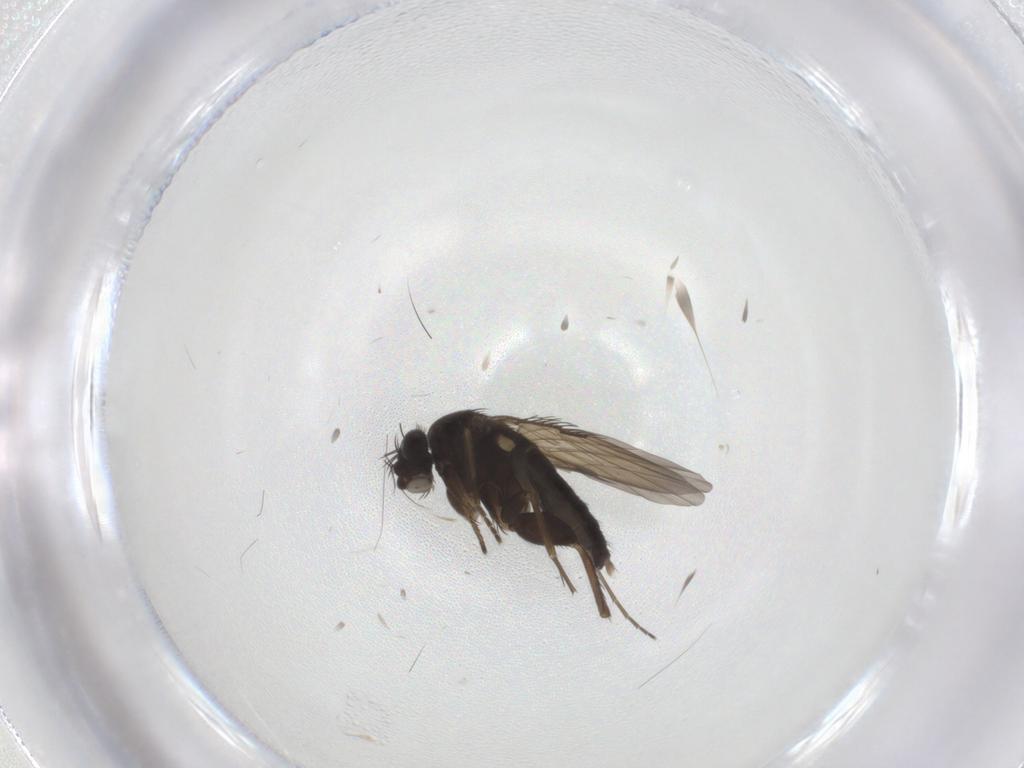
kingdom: Animalia
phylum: Arthropoda
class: Insecta
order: Diptera
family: Phoridae
